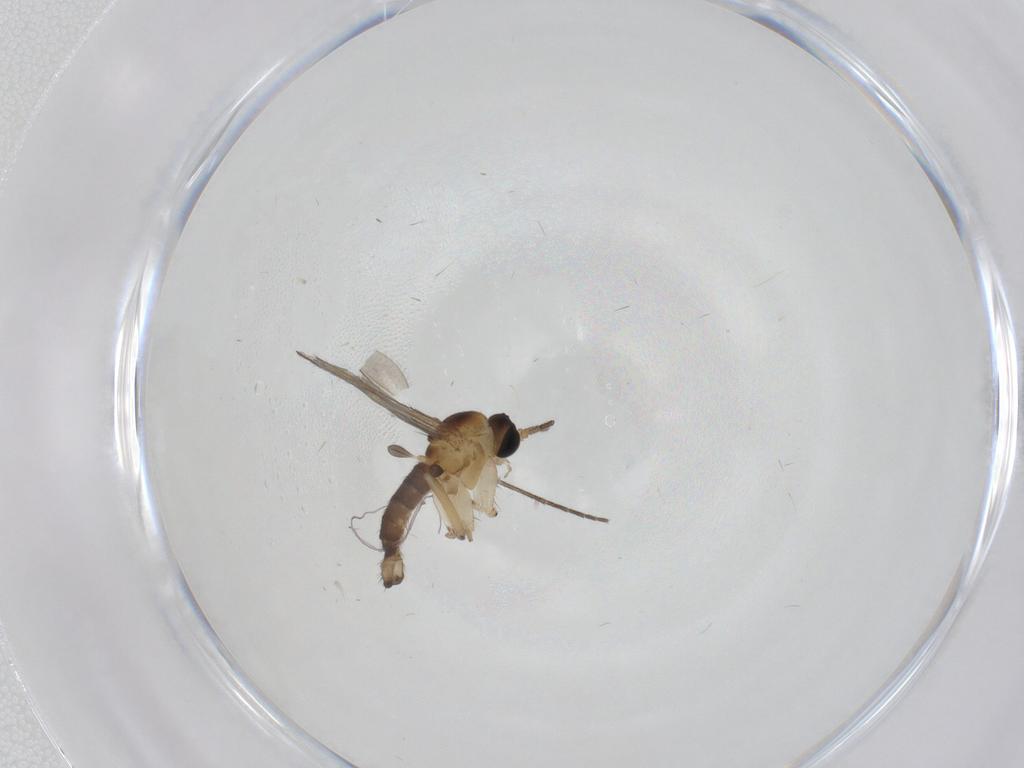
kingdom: Animalia
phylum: Arthropoda
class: Insecta
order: Diptera
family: Sciaridae
